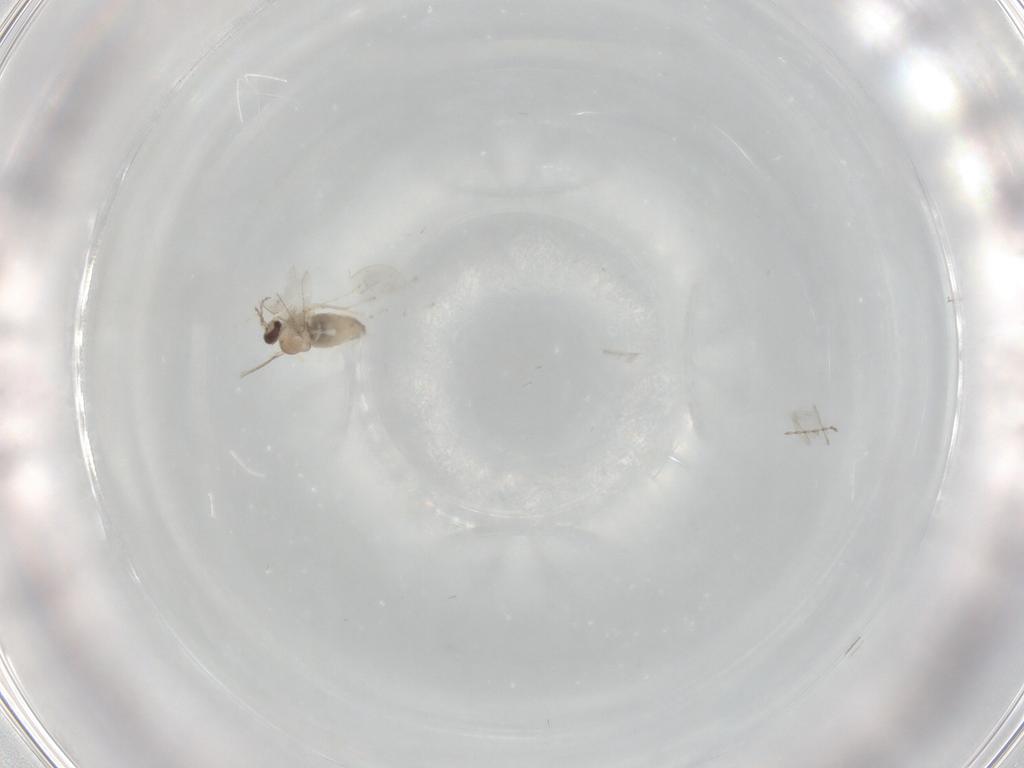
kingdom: Animalia
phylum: Arthropoda
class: Insecta
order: Diptera
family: Cecidomyiidae
